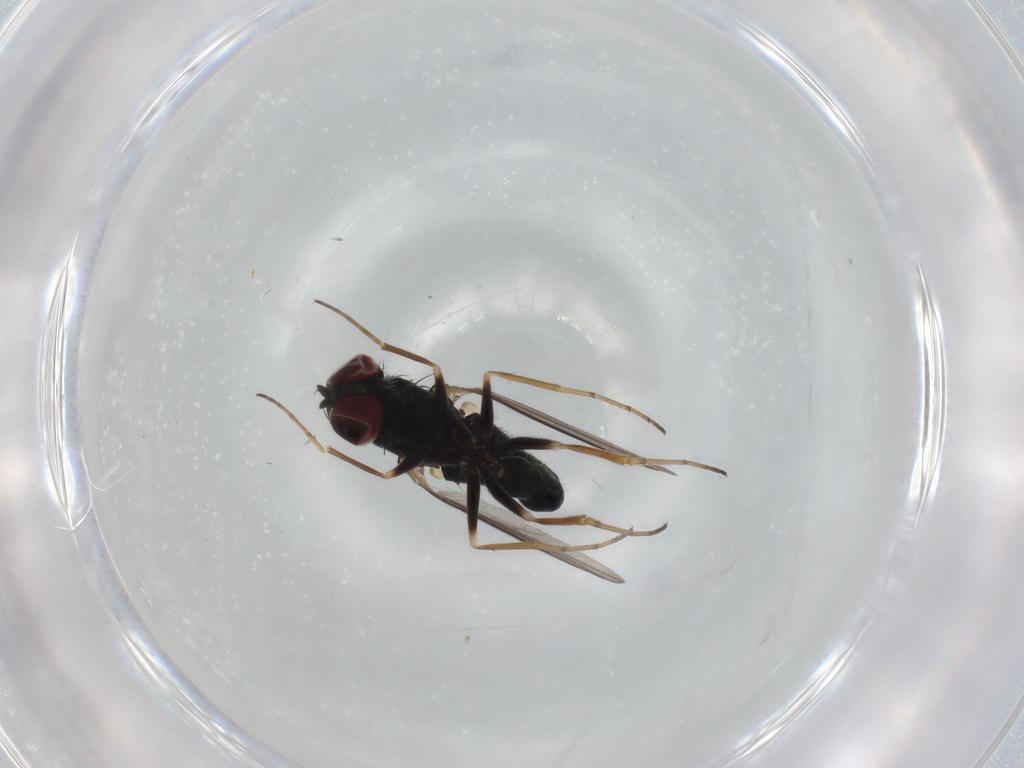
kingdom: Animalia
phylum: Arthropoda
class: Insecta
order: Diptera
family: Dolichopodidae
